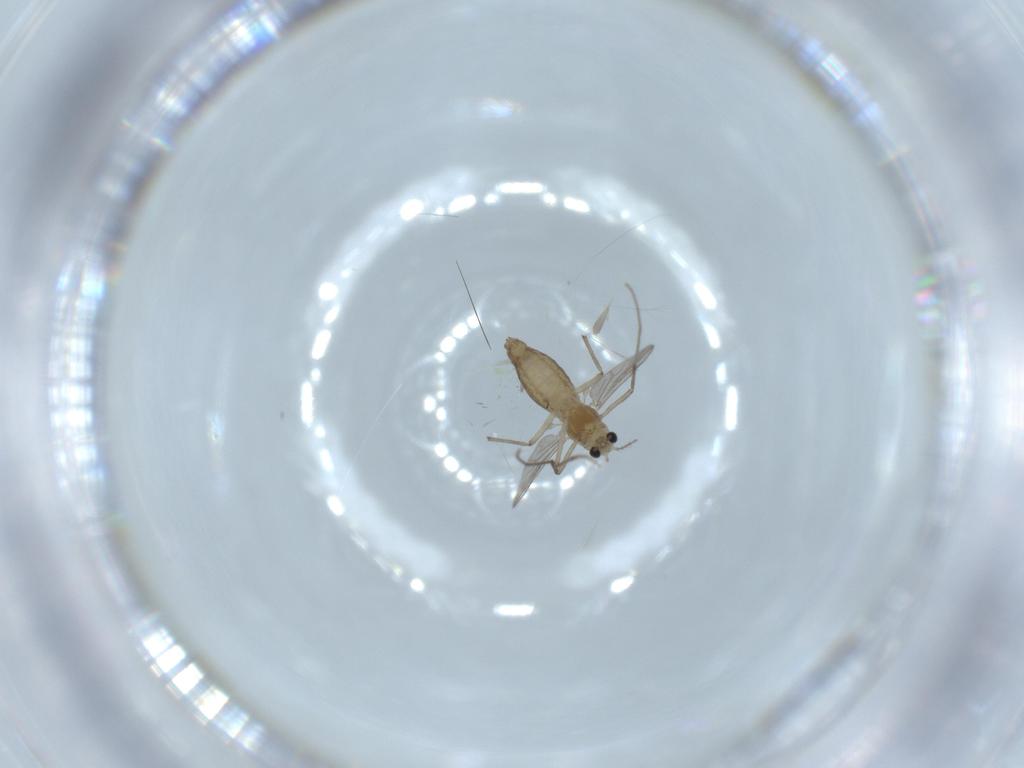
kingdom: Animalia
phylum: Arthropoda
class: Insecta
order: Diptera
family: Chironomidae
